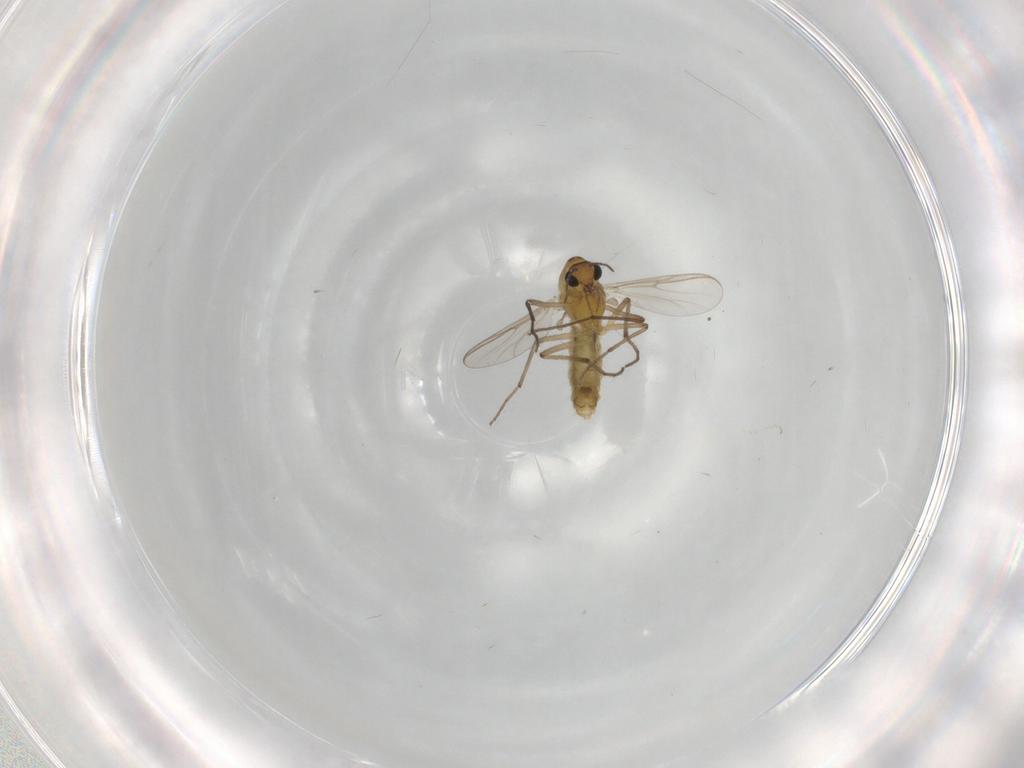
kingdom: Animalia
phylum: Arthropoda
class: Insecta
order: Diptera
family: Chironomidae
